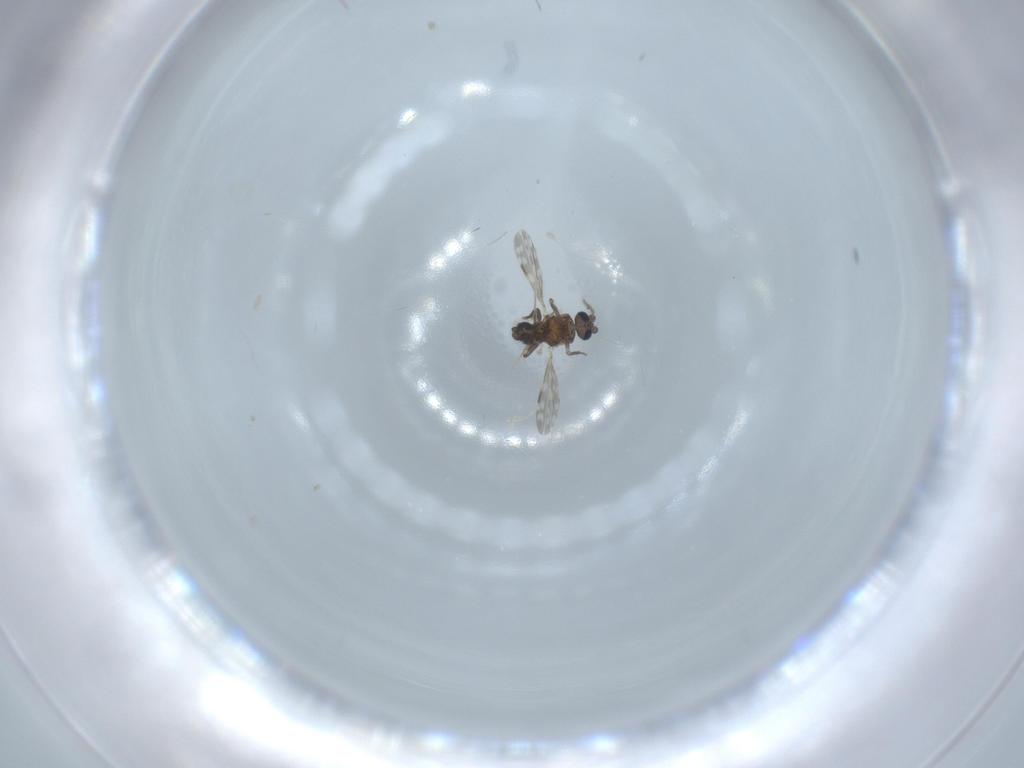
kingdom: Animalia
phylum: Arthropoda
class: Insecta
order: Diptera
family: Ceratopogonidae
